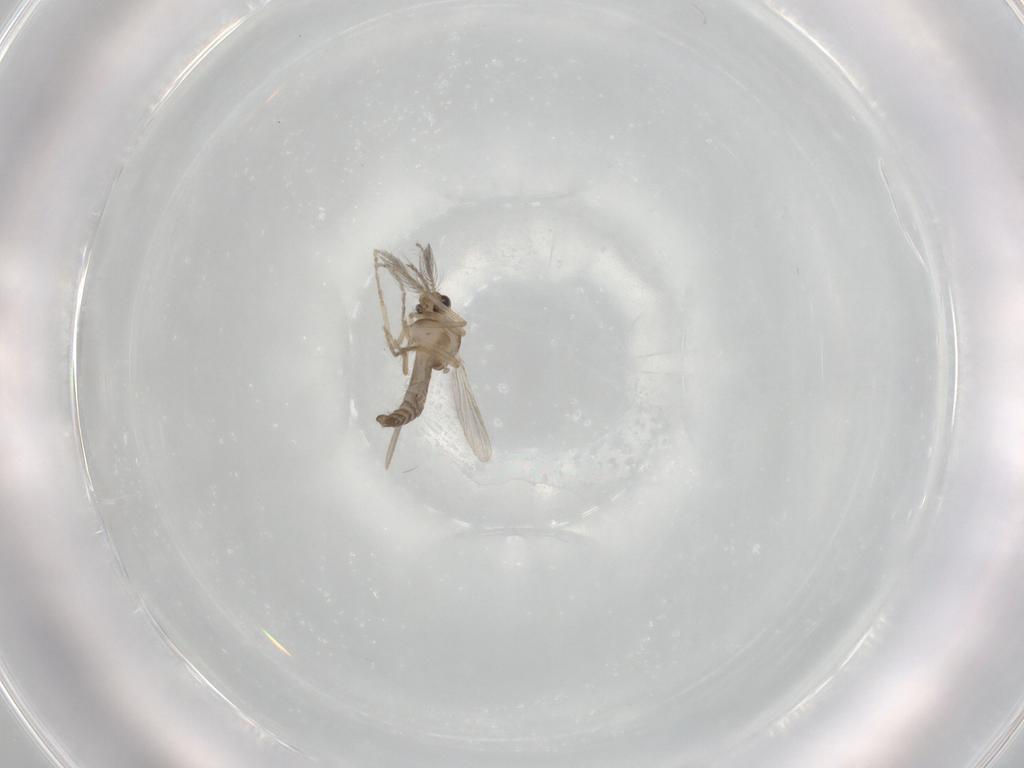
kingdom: Animalia
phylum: Arthropoda
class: Insecta
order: Diptera
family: Ceratopogonidae
